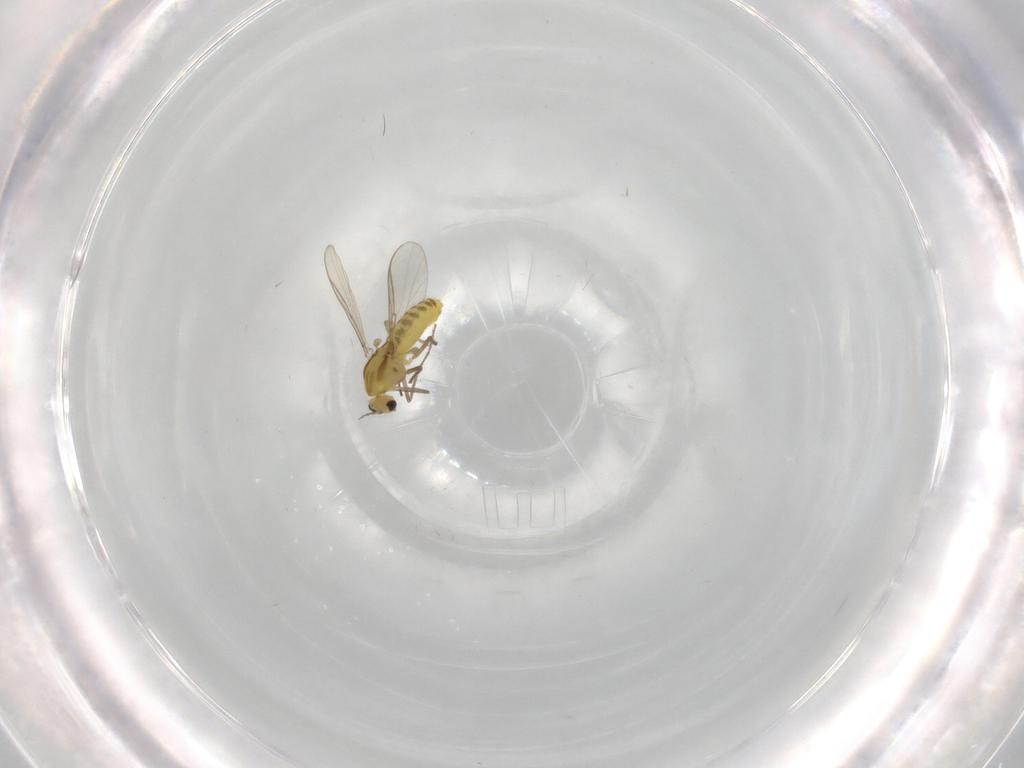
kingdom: Animalia
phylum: Arthropoda
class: Insecta
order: Diptera
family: Chironomidae
